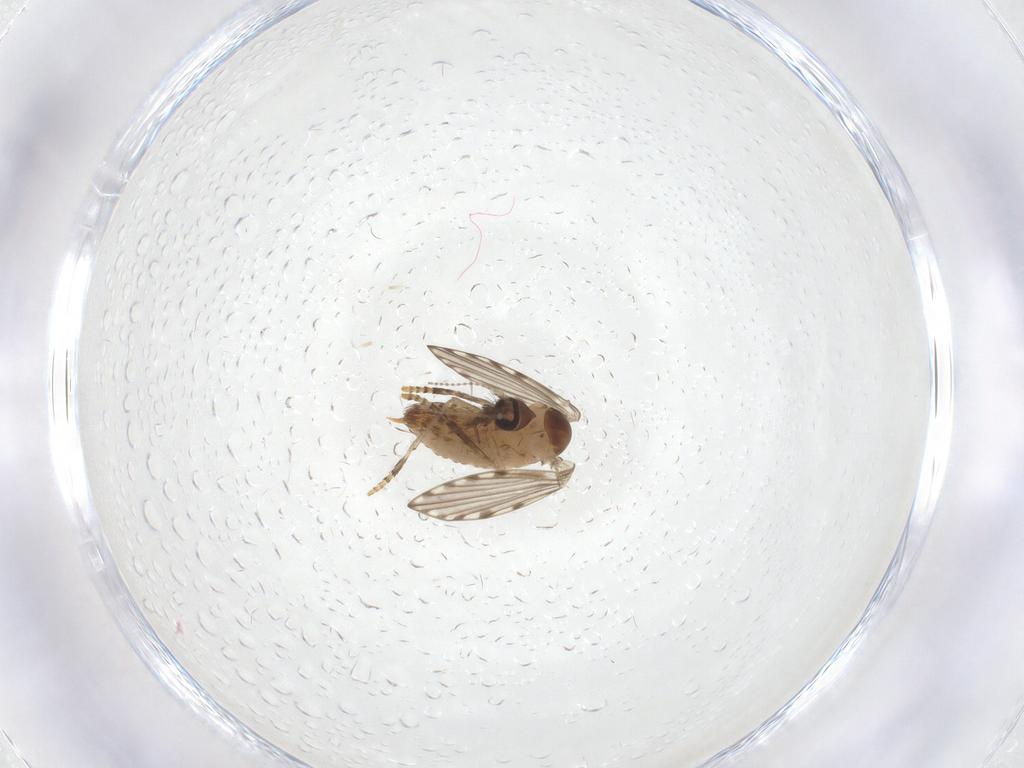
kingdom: Animalia
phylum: Arthropoda
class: Insecta
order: Diptera
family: Psychodidae
